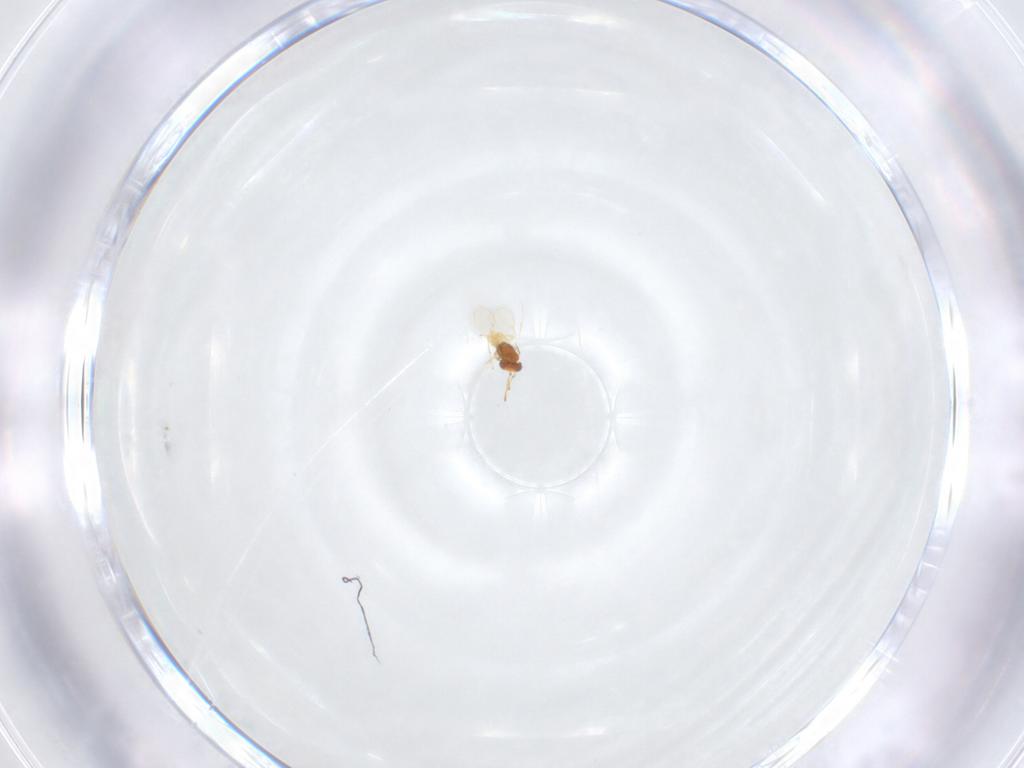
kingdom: Animalia
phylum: Arthropoda
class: Insecta
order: Hymenoptera
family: Aphelinidae
